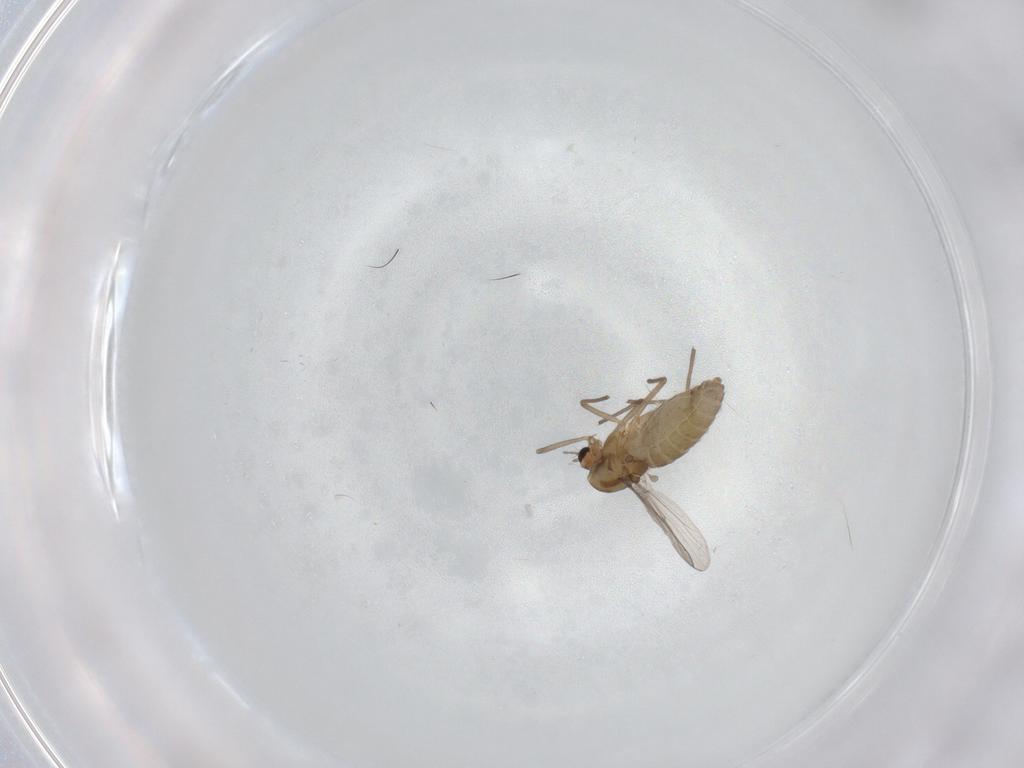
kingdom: Animalia
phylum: Arthropoda
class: Insecta
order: Diptera
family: Chironomidae
